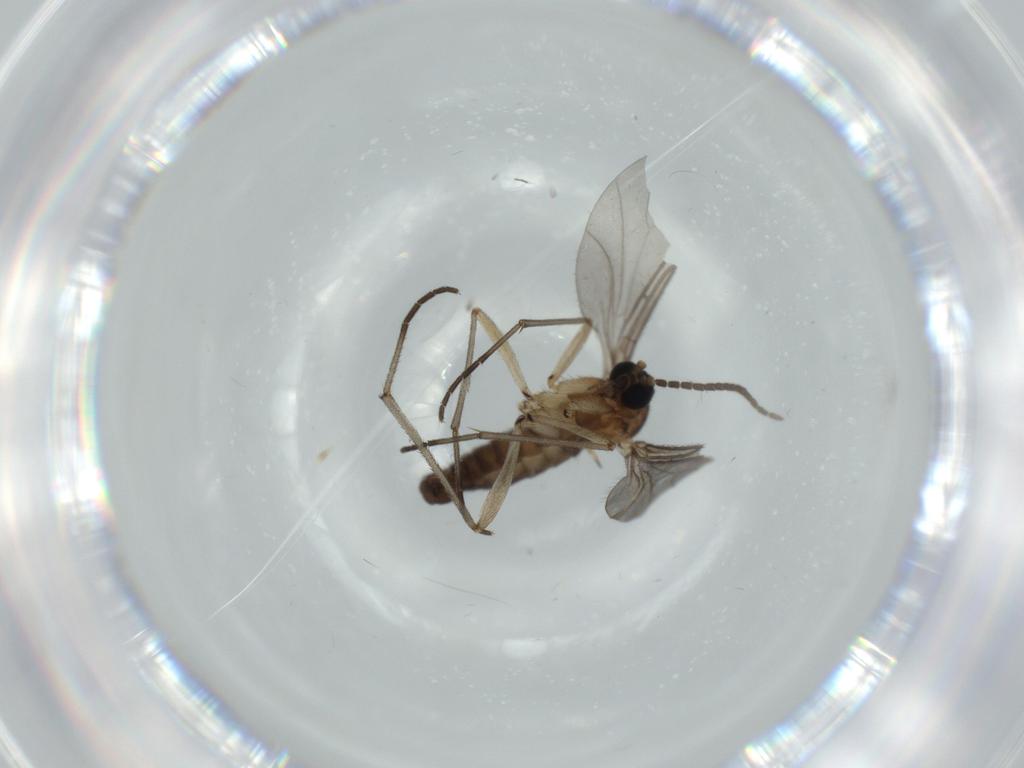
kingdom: Animalia
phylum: Arthropoda
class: Insecta
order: Diptera
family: Sciaridae
